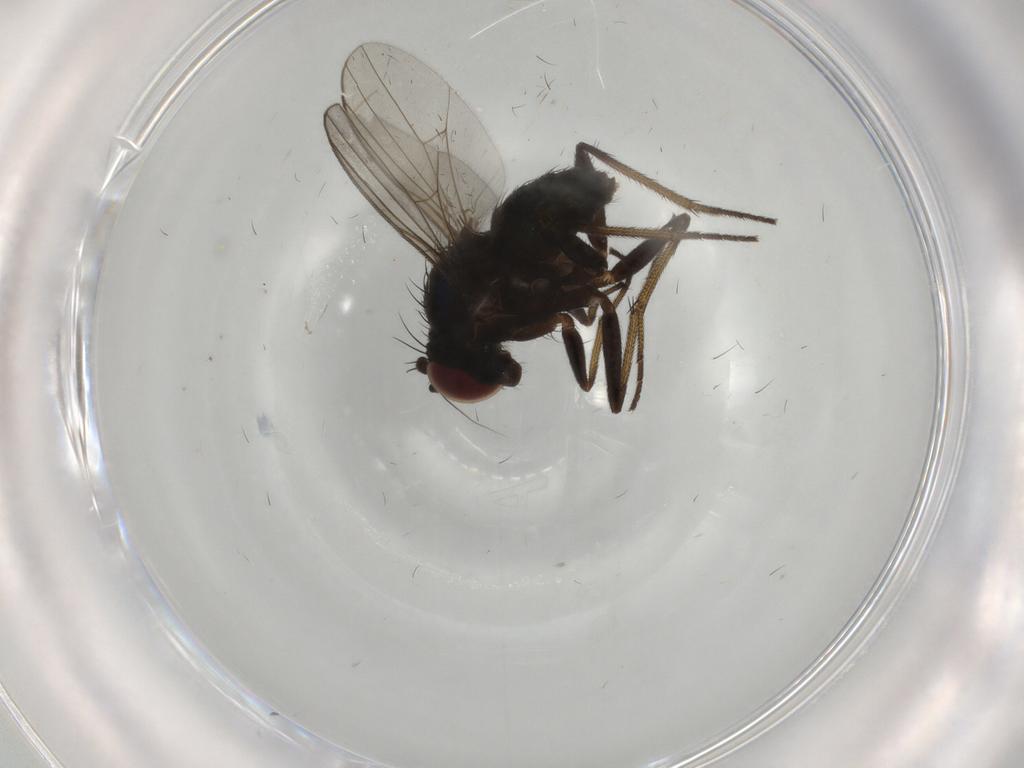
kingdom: Animalia
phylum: Arthropoda
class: Insecta
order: Diptera
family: Dolichopodidae
